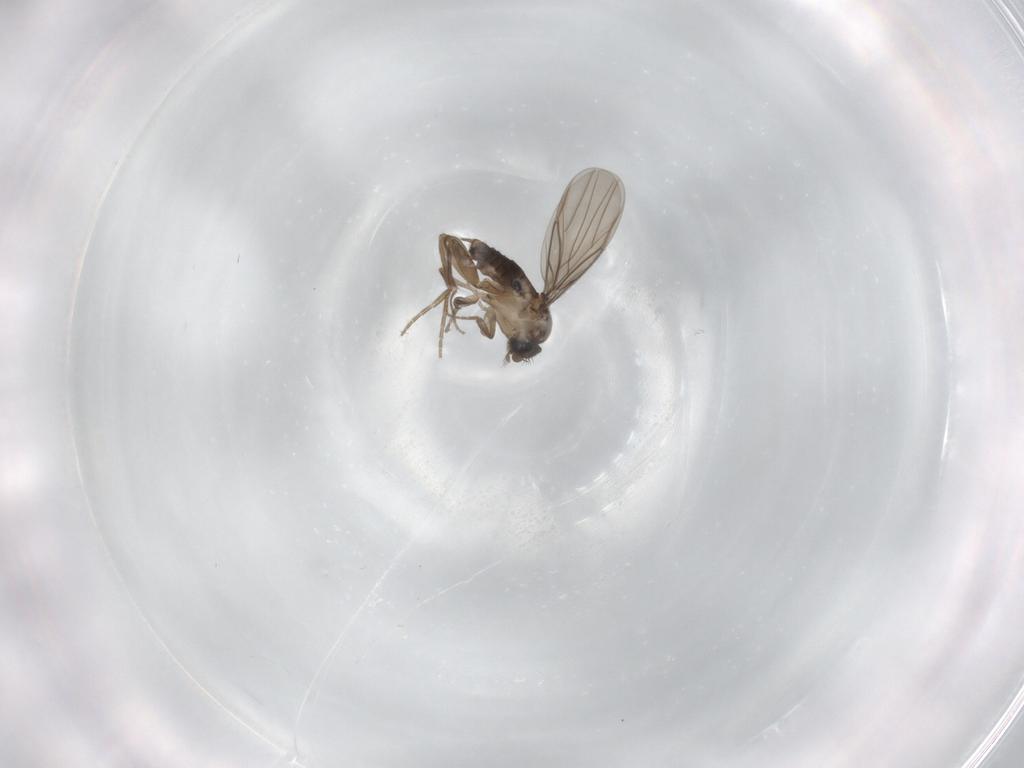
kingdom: Animalia
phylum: Arthropoda
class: Insecta
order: Diptera
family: Phoridae
